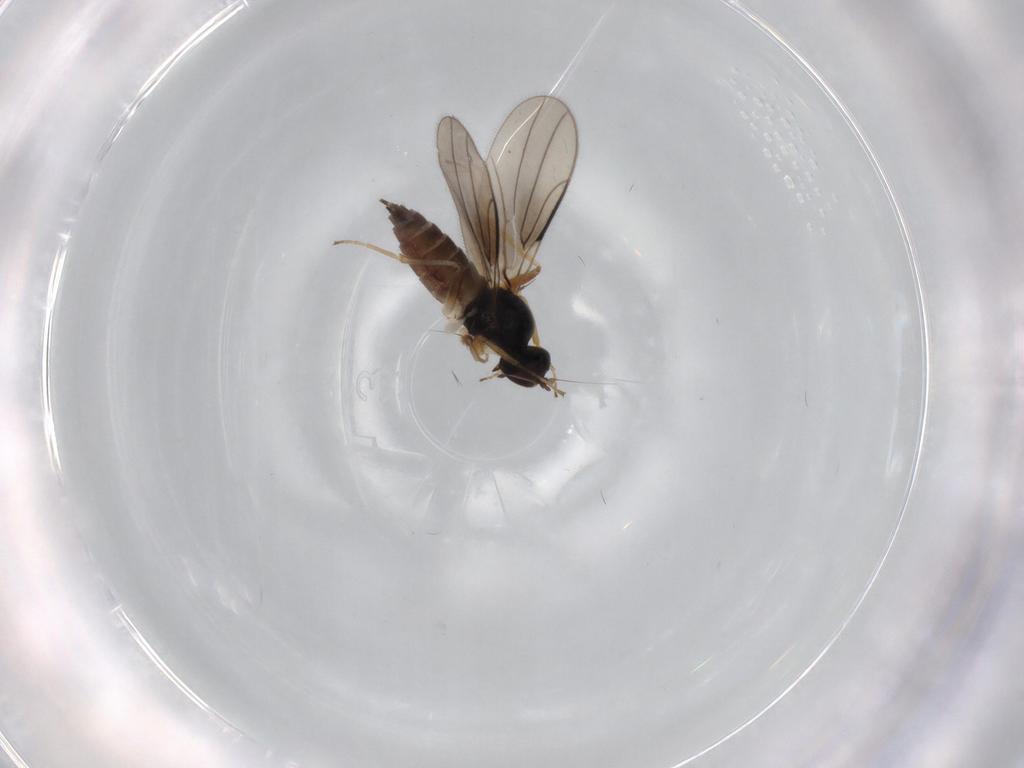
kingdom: Animalia
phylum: Arthropoda
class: Insecta
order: Diptera
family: Hybotidae
